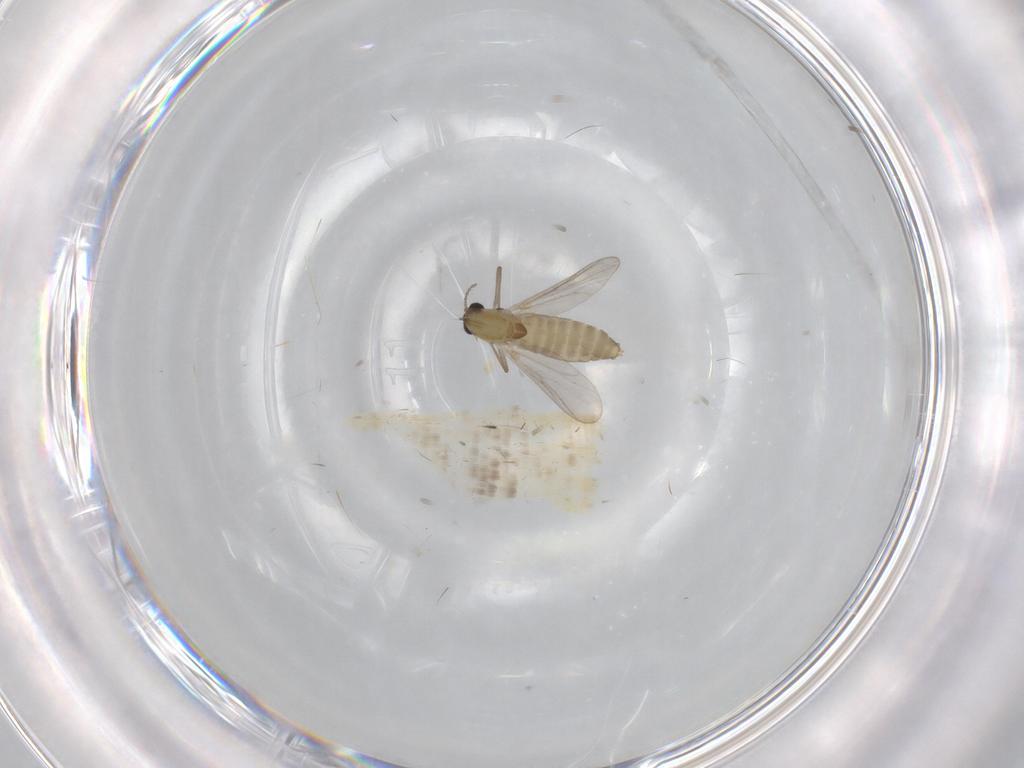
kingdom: Animalia
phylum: Arthropoda
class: Insecta
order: Diptera
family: Chironomidae
